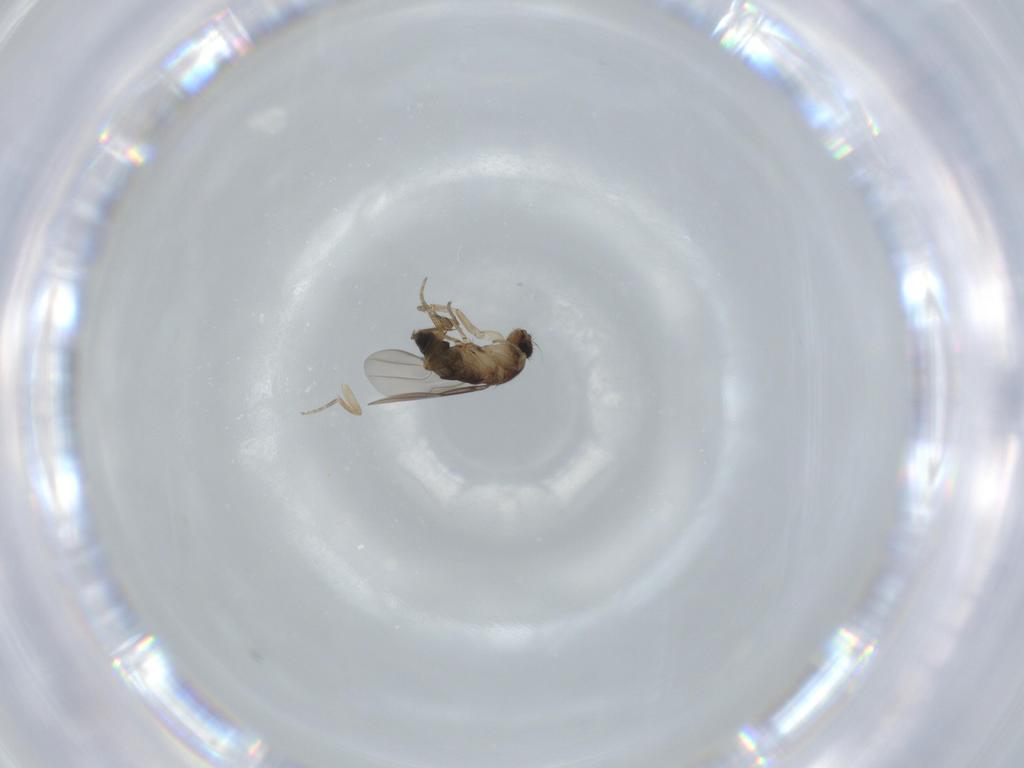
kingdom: Animalia
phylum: Arthropoda
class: Insecta
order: Diptera
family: Phoridae
